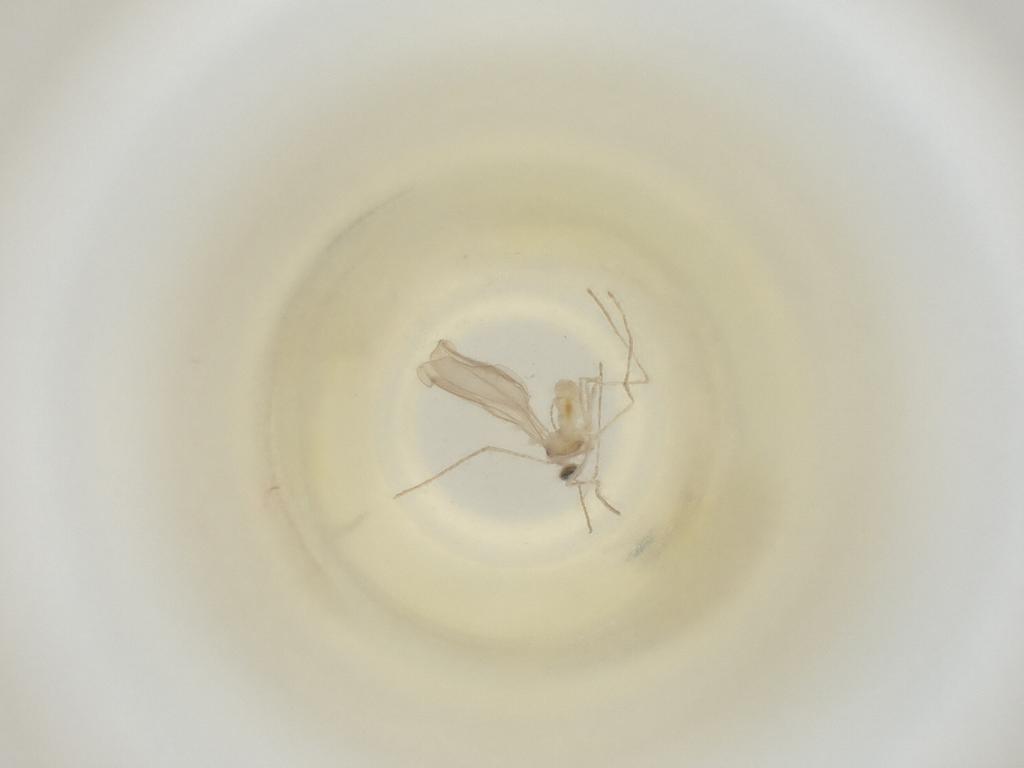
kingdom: Animalia
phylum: Arthropoda
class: Insecta
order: Diptera
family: Cecidomyiidae
